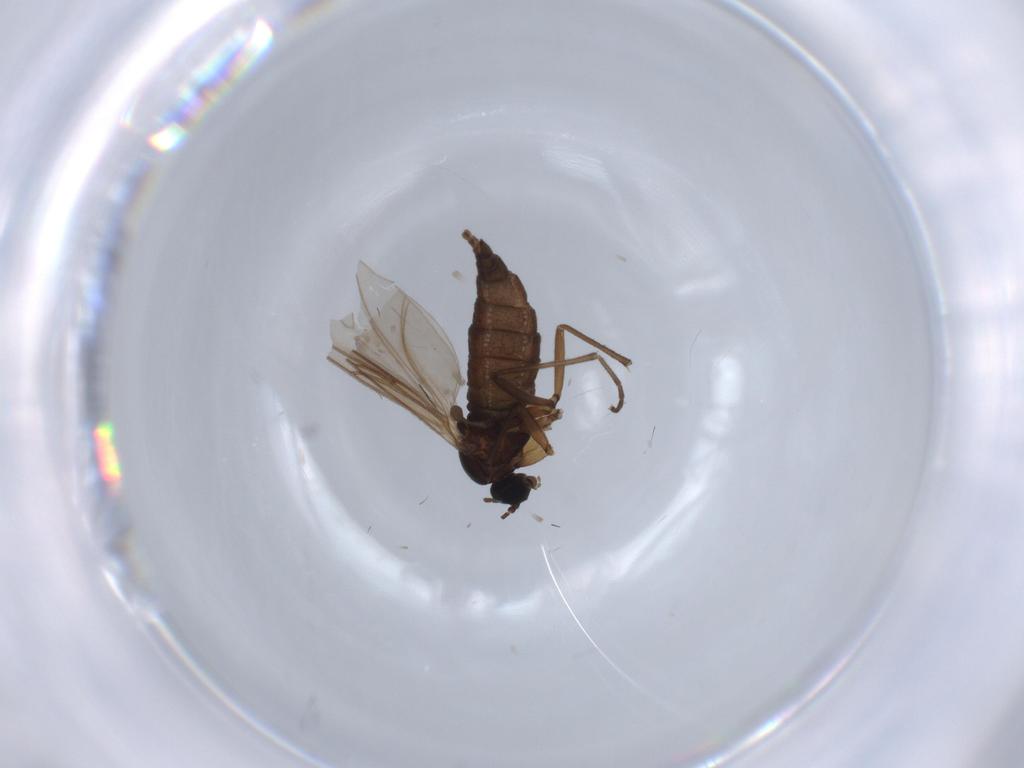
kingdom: Animalia
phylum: Arthropoda
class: Insecta
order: Diptera
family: Sciaridae
